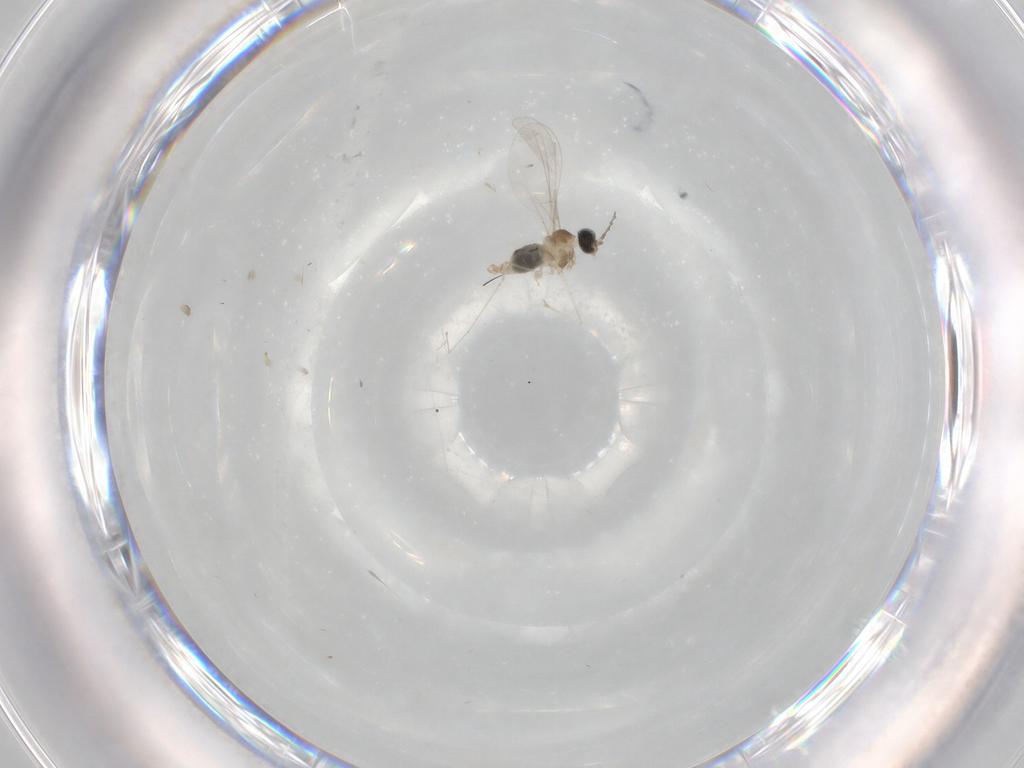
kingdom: Animalia
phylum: Arthropoda
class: Insecta
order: Diptera
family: Cecidomyiidae
